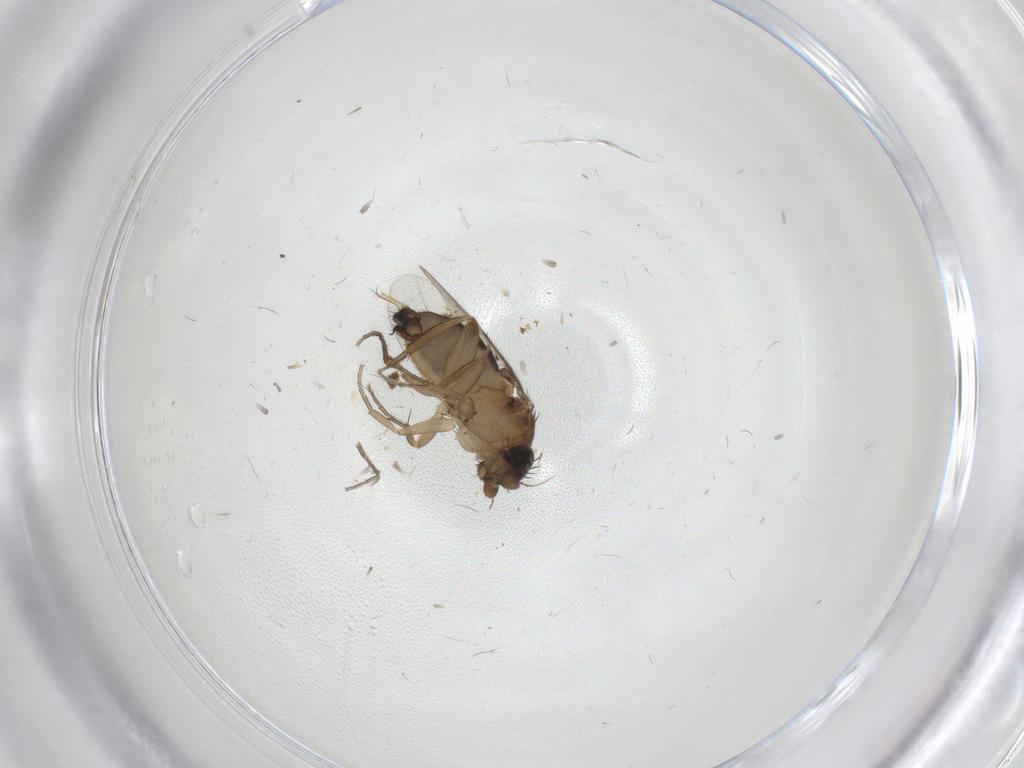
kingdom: Animalia
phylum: Arthropoda
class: Insecta
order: Diptera
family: Cecidomyiidae
